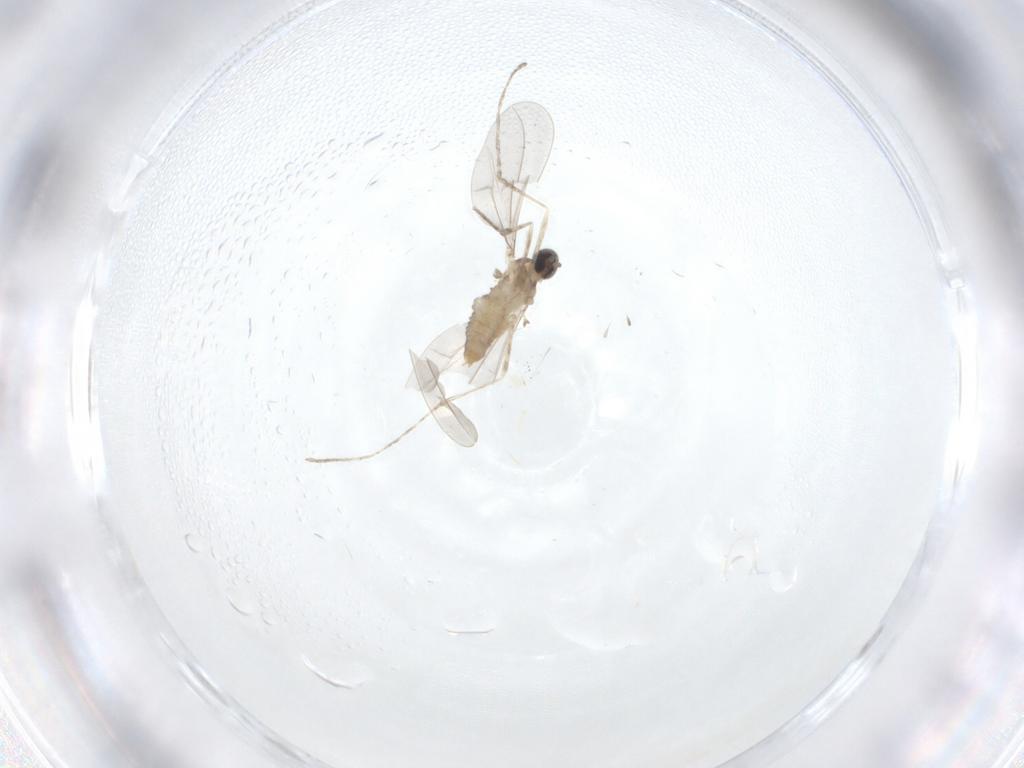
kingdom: Animalia
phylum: Arthropoda
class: Insecta
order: Diptera
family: Cecidomyiidae
